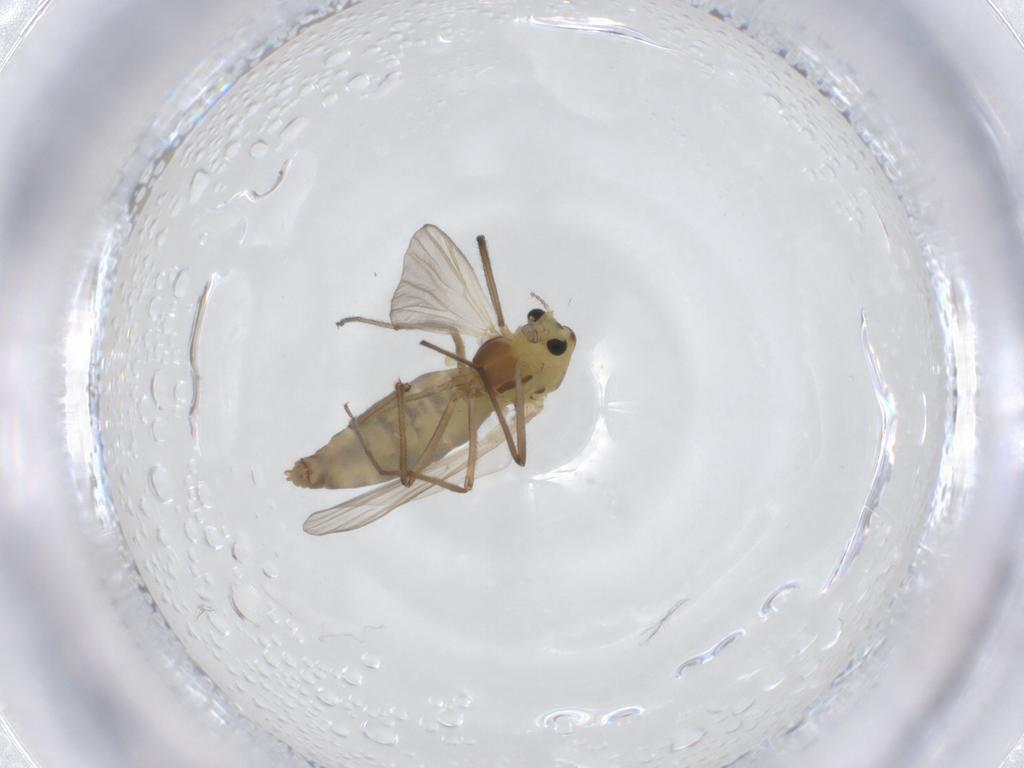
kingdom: Animalia
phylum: Arthropoda
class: Insecta
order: Diptera
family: Chironomidae
